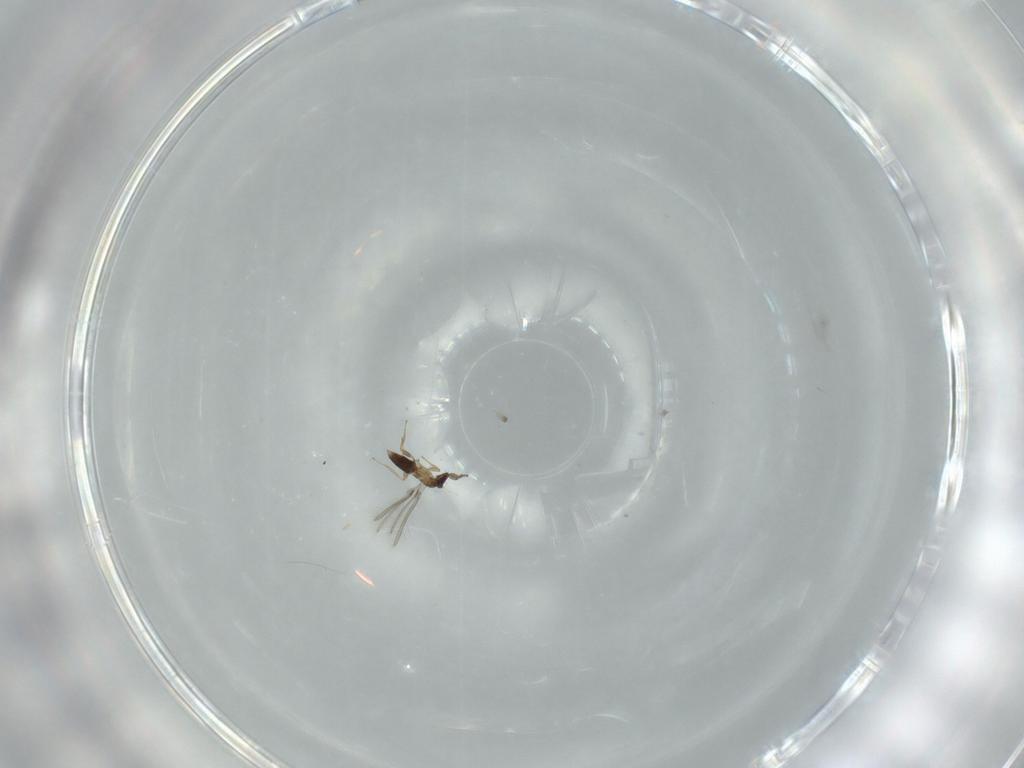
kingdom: Animalia
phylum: Arthropoda
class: Insecta
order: Hymenoptera
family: Mymaridae
